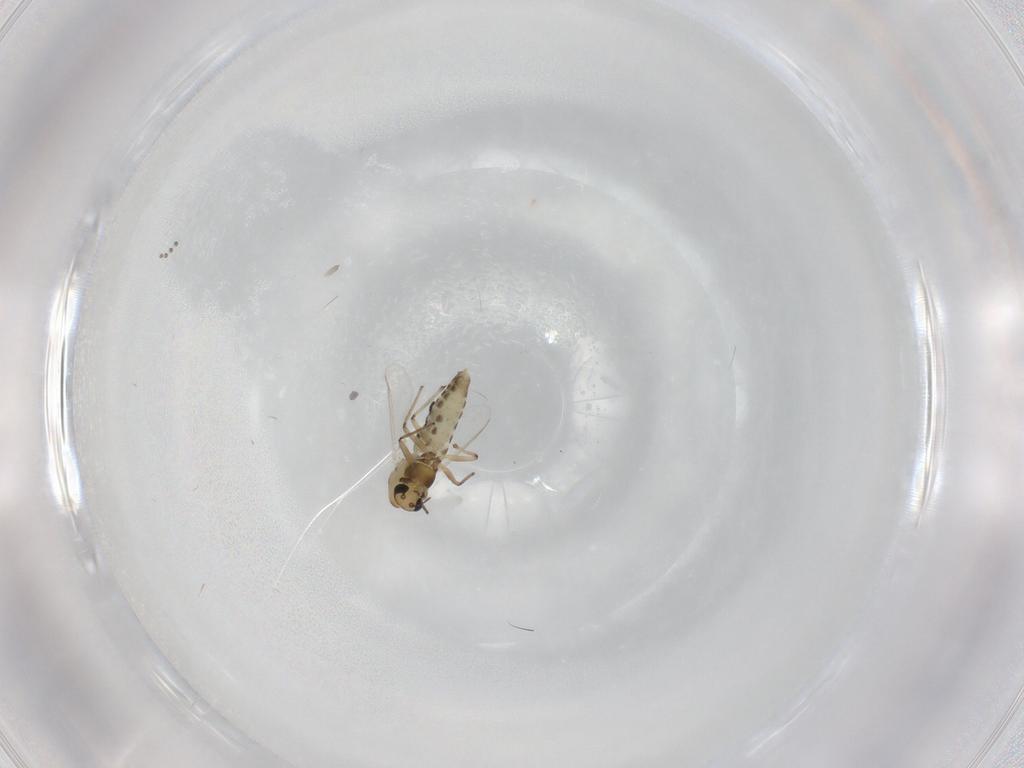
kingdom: Animalia
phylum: Arthropoda
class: Insecta
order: Diptera
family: Chironomidae
